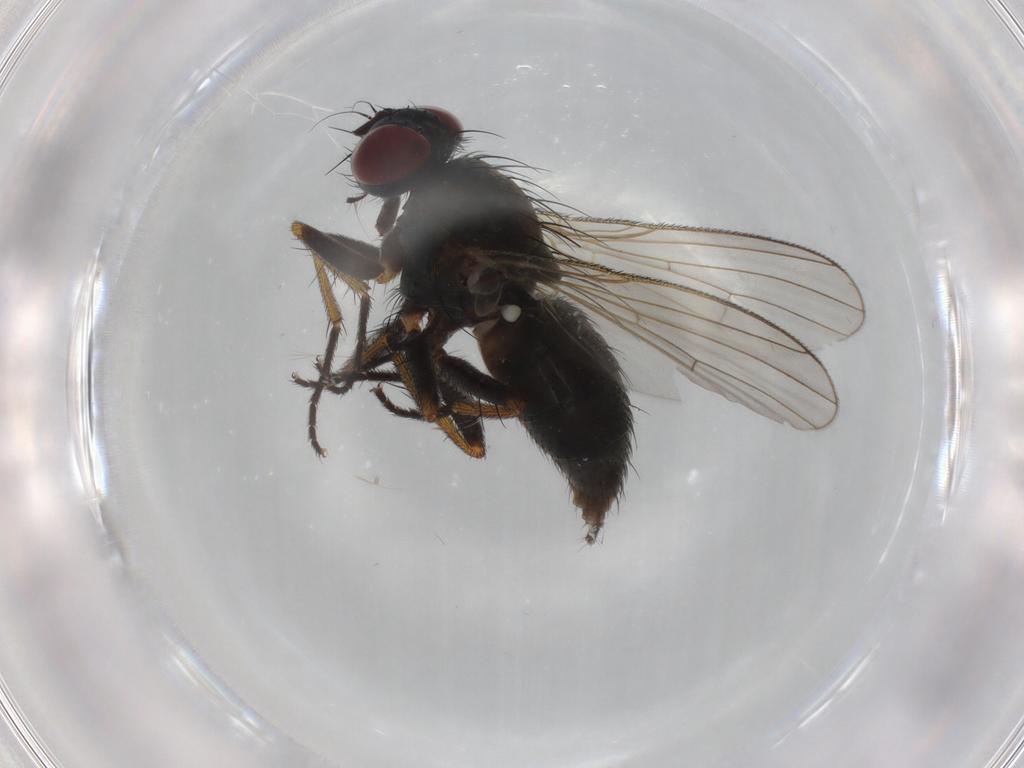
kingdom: Animalia
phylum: Arthropoda
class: Insecta
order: Diptera
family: Muscidae
